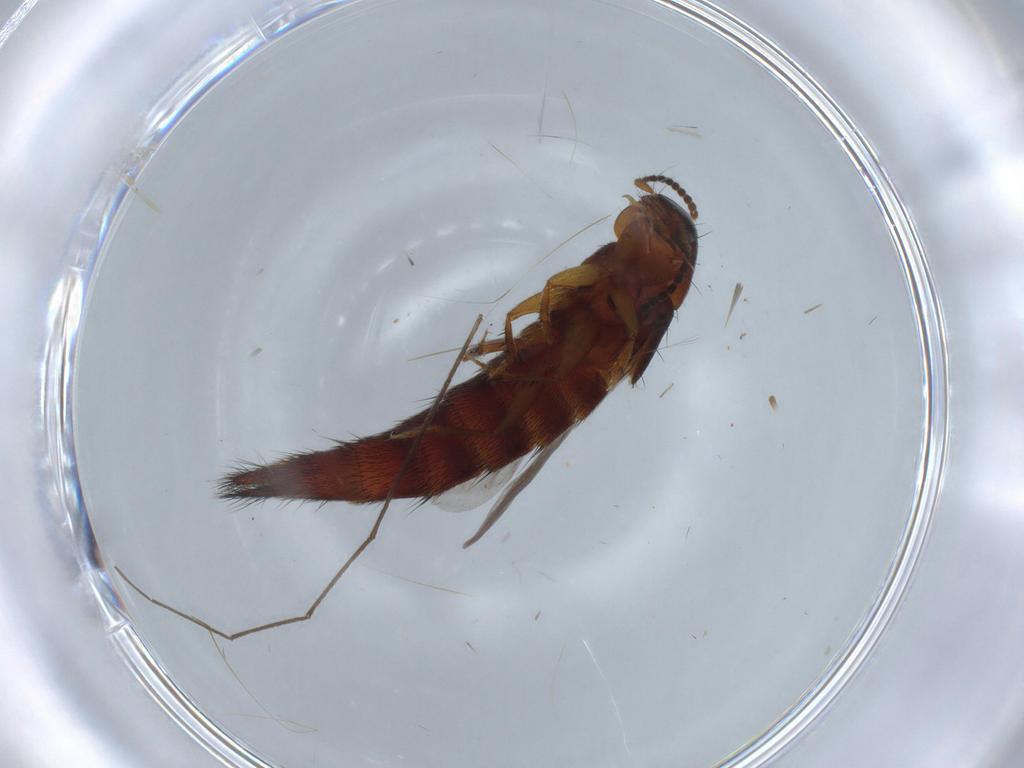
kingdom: Animalia
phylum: Arthropoda
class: Insecta
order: Coleoptera
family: Staphylinidae
